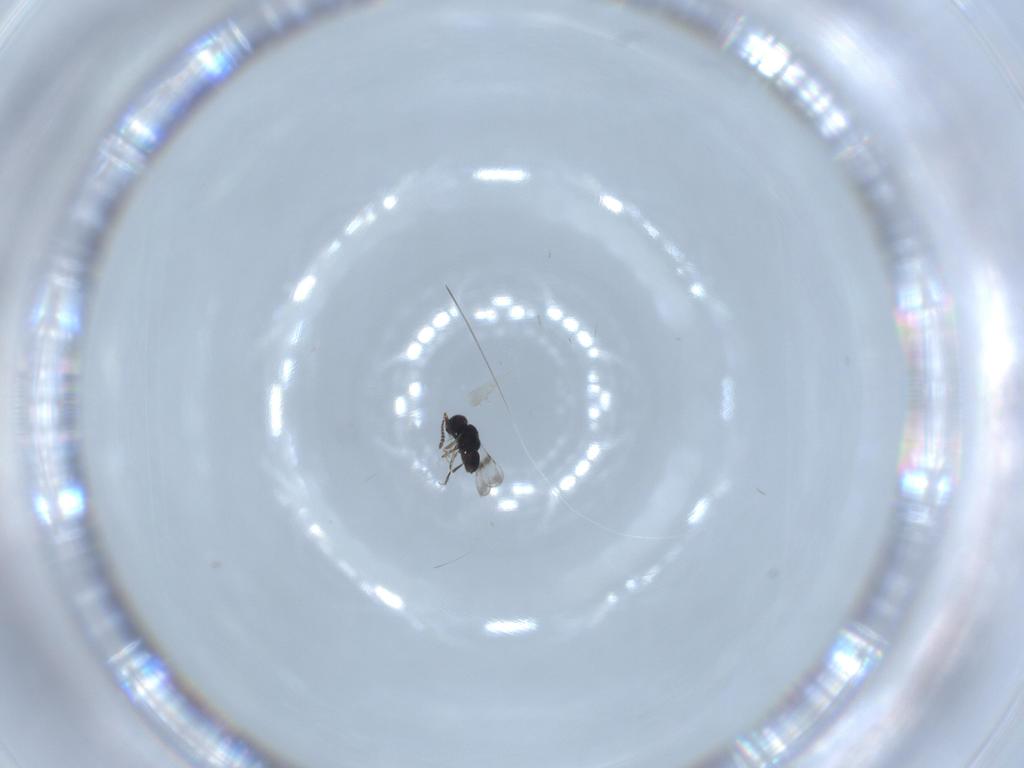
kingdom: Animalia
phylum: Arthropoda
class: Insecta
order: Hymenoptera
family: Ceraphronidae
